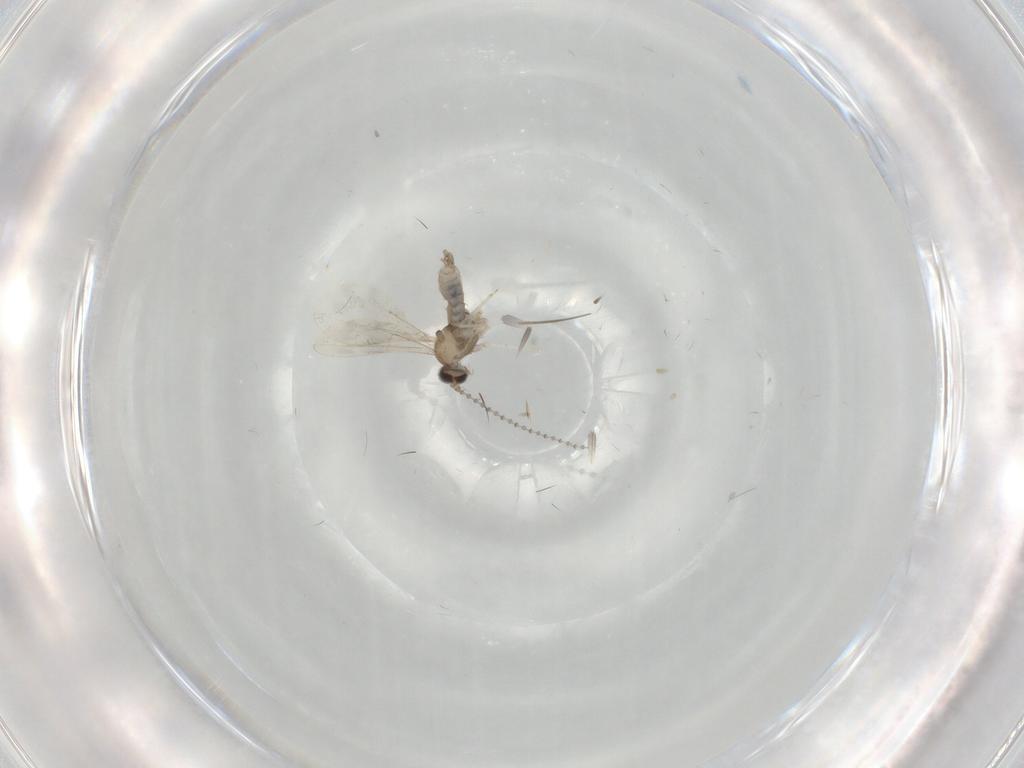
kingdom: Animalia
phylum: Arthropoda
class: Insecta
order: Diptera
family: Cecidomyiidae
